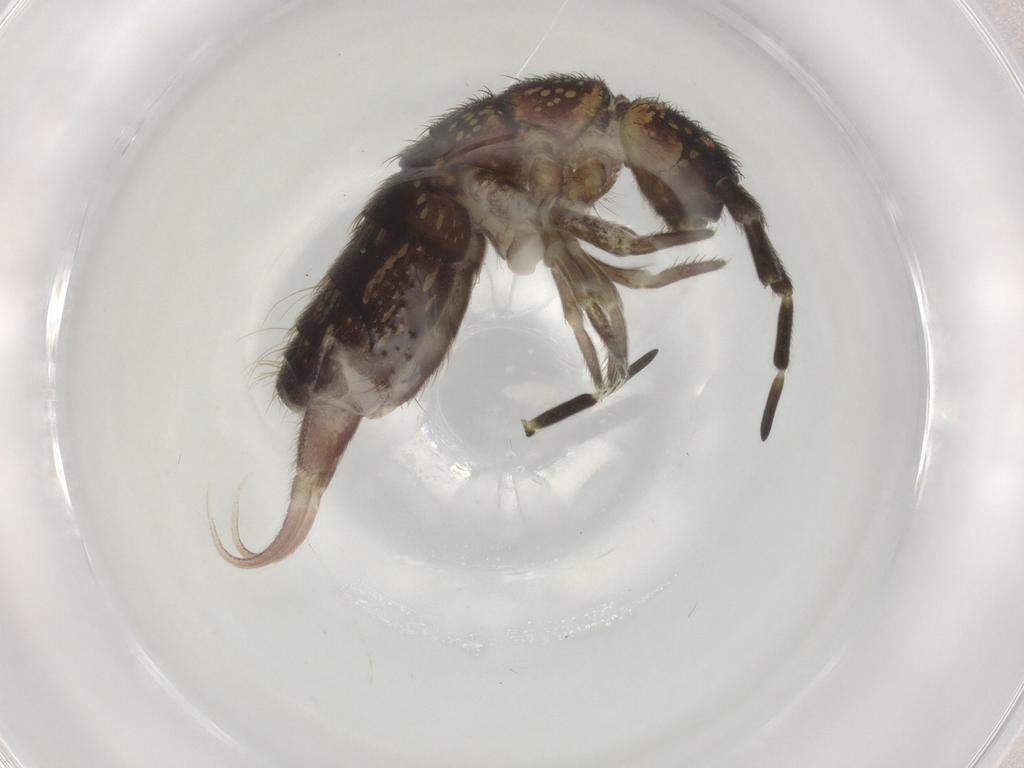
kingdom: Animalia
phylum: Arthropoda
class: Collembola
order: Entomobryomorpha
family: Isotomidae
